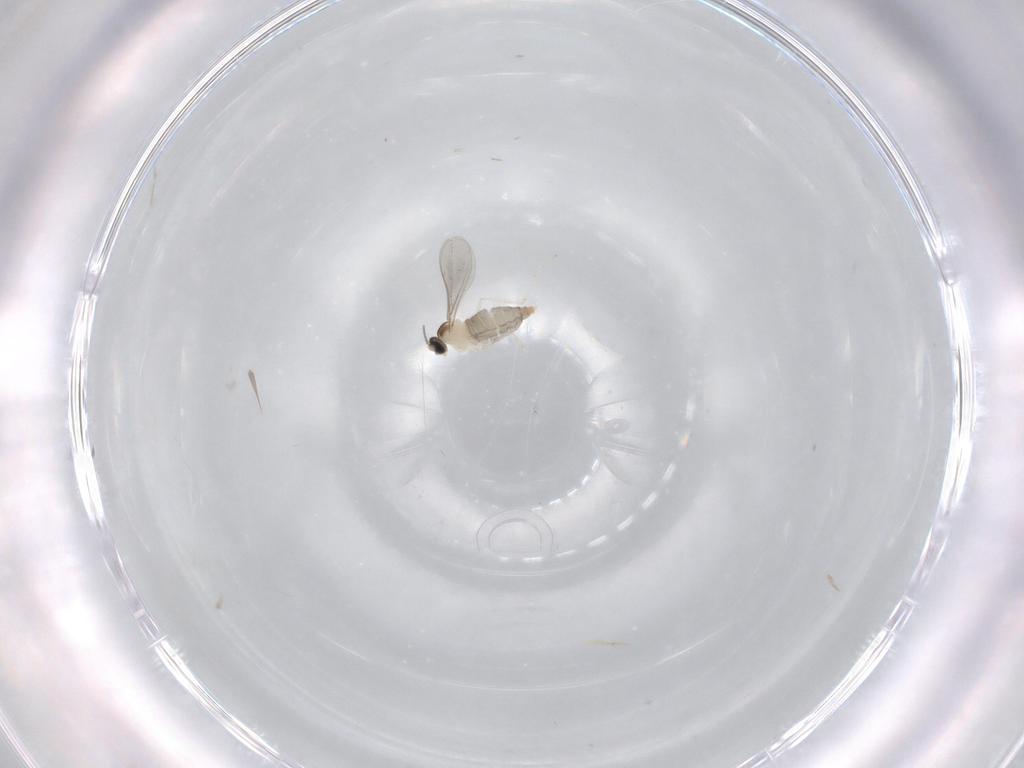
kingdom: Animalia
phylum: Arthropoda
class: Insecta
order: Diptera
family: Cecidomyiidae
